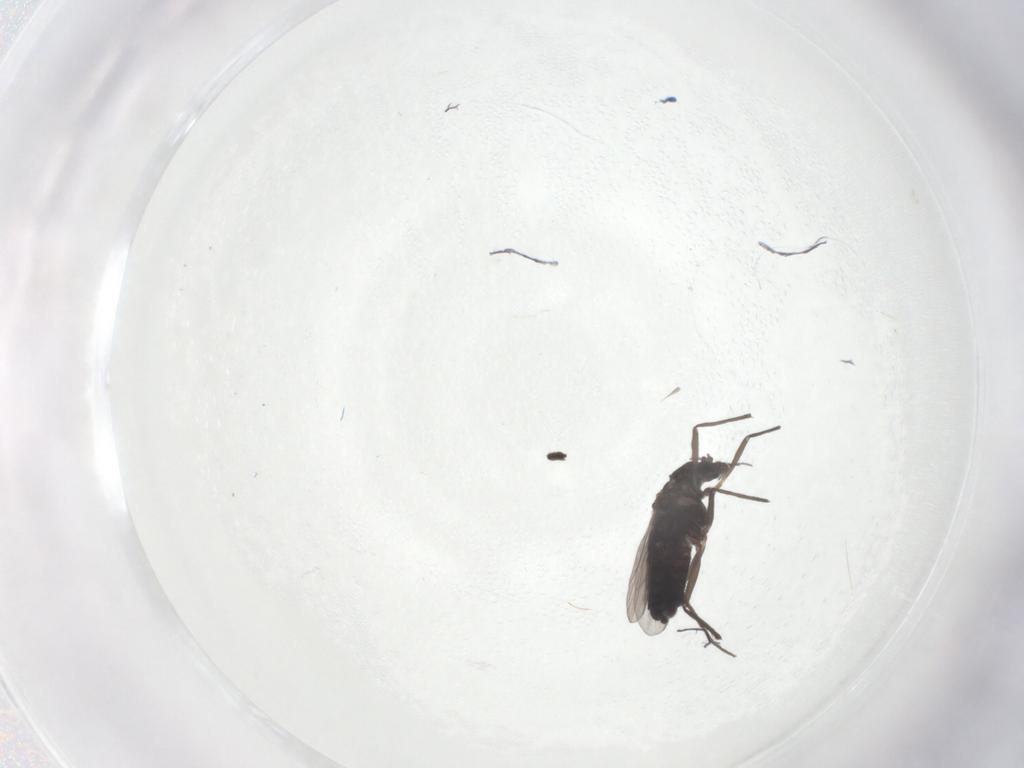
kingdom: Animalia
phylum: Arthropoda
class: Insecta
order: Diptera
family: Chironomidae
